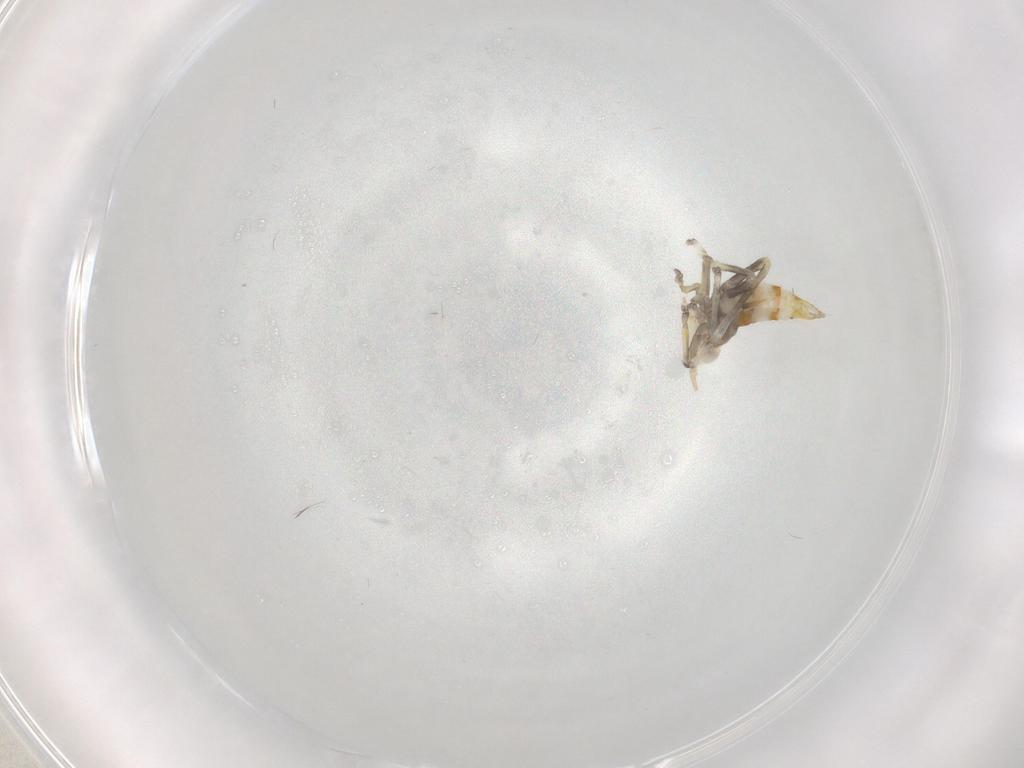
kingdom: Animalia
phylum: Arthropoda
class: Insecta
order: Hemiptera
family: Cicadellidae
